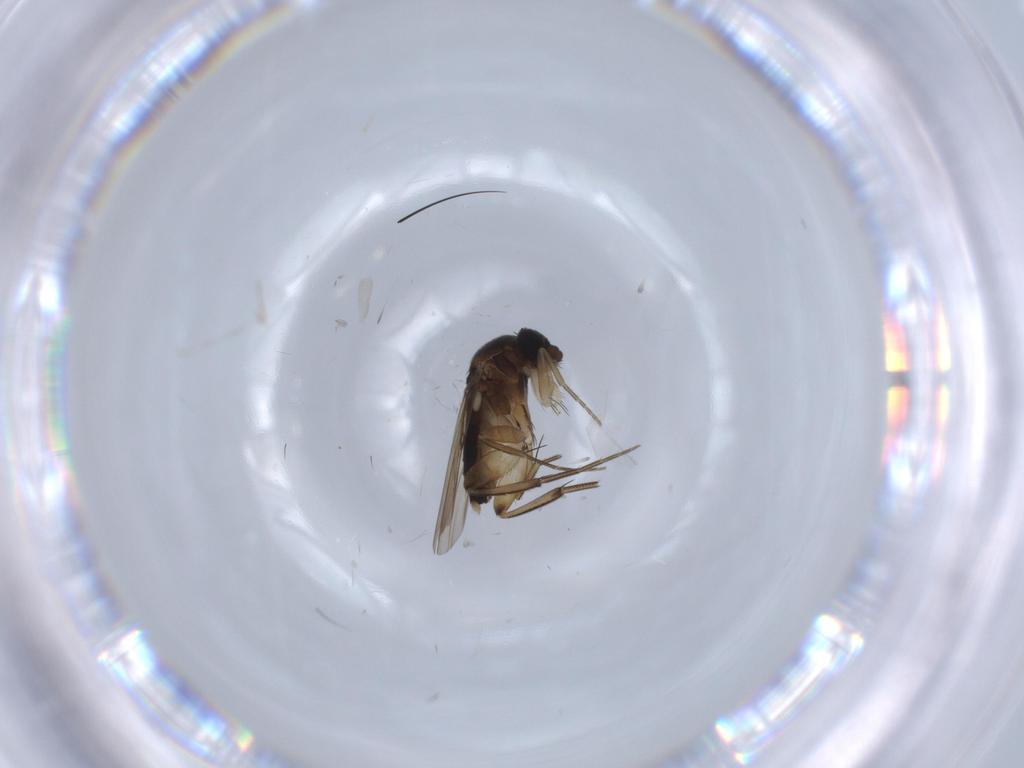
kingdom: Animalia
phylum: Arthropoda
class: Insecta
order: Diptera
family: Phoridae
